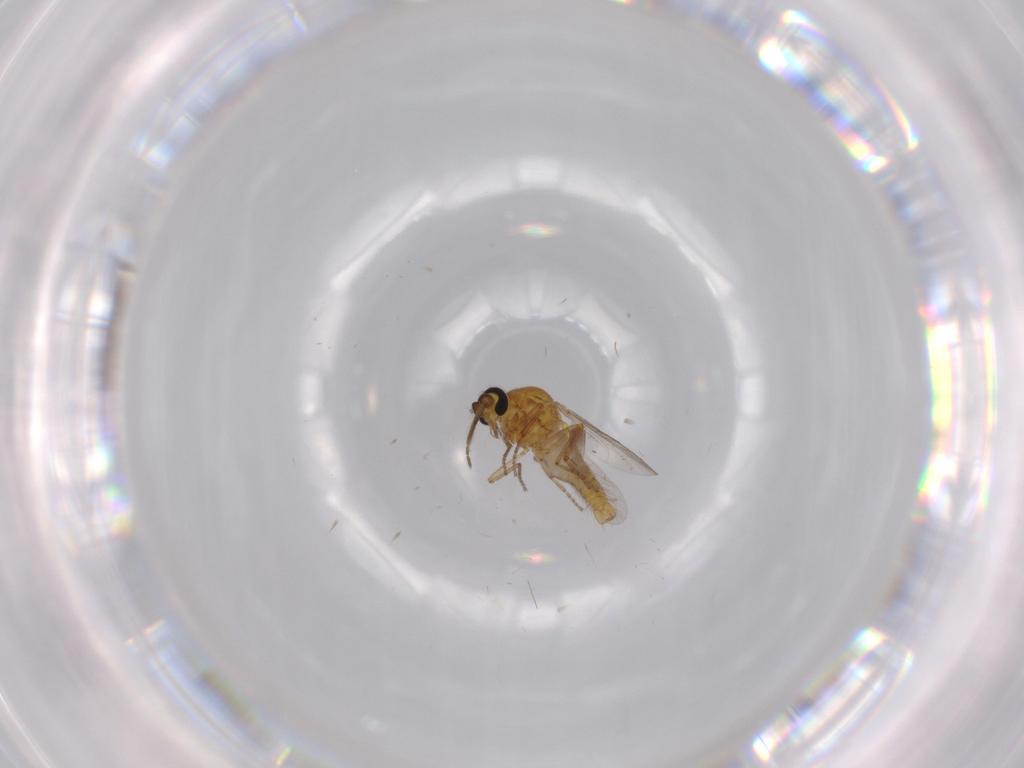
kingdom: Animalia
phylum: Arthropoda
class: Insecta
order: Diptera
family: Ceratopogonidae
